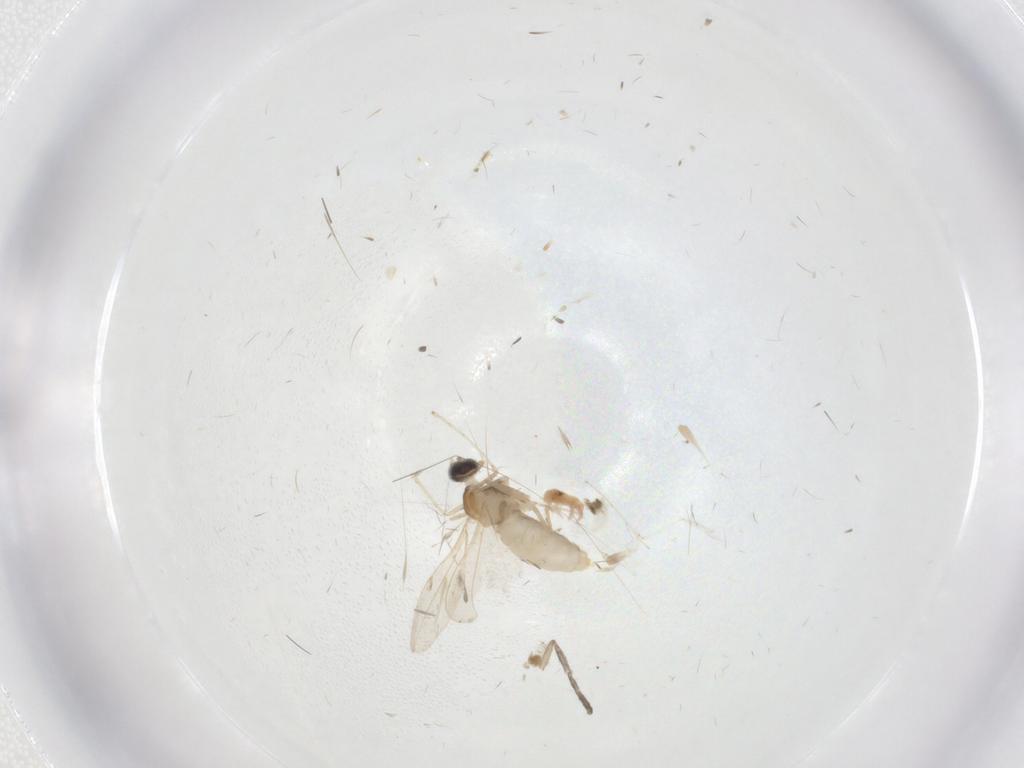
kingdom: Animalia
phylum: Arthropoda
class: Insecta
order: Diptera
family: Cecidomyiidae
